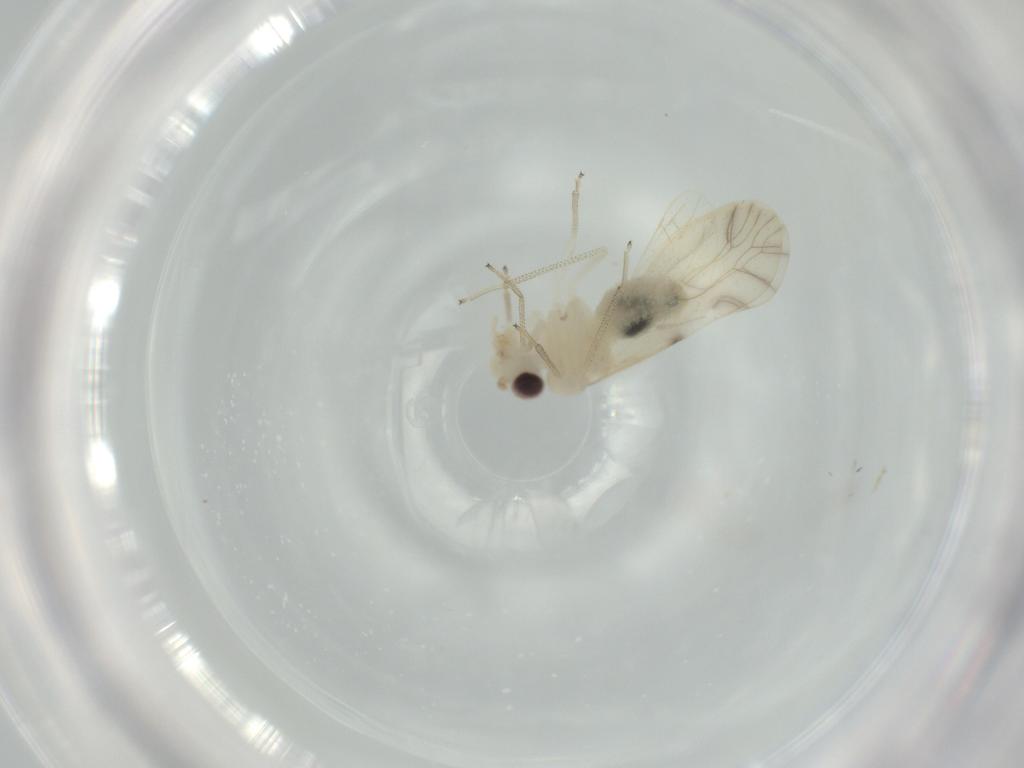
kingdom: Animalia
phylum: Arthropoda
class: Insecta
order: Psocodea
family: Caeciliusidae
